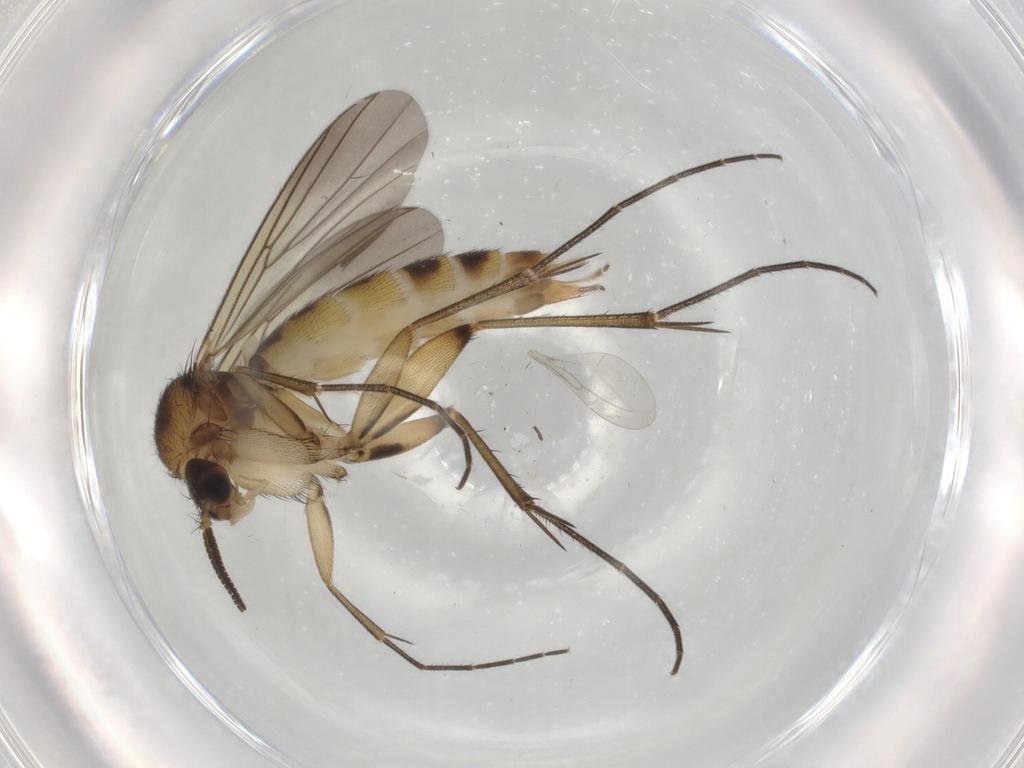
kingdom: Animalia
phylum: Arthropoda
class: Insecta
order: Diptera
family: Mycetophilidae
